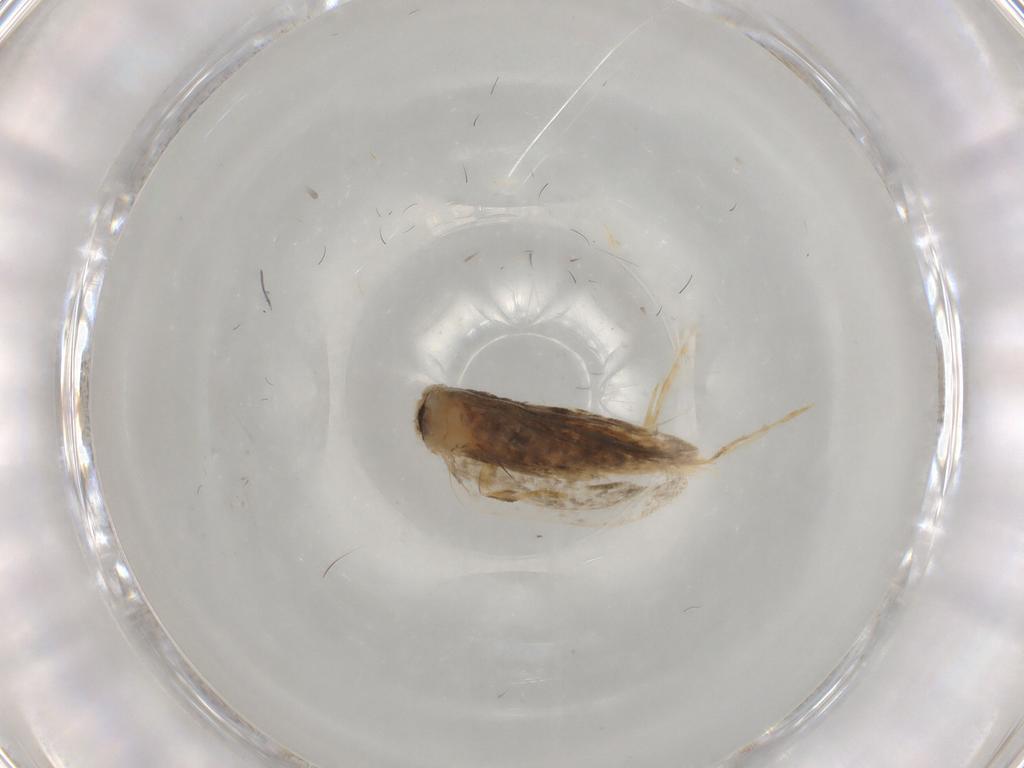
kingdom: Animalia
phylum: Arthropoda
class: Insecta
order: Lepidoptera
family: Psychidae
